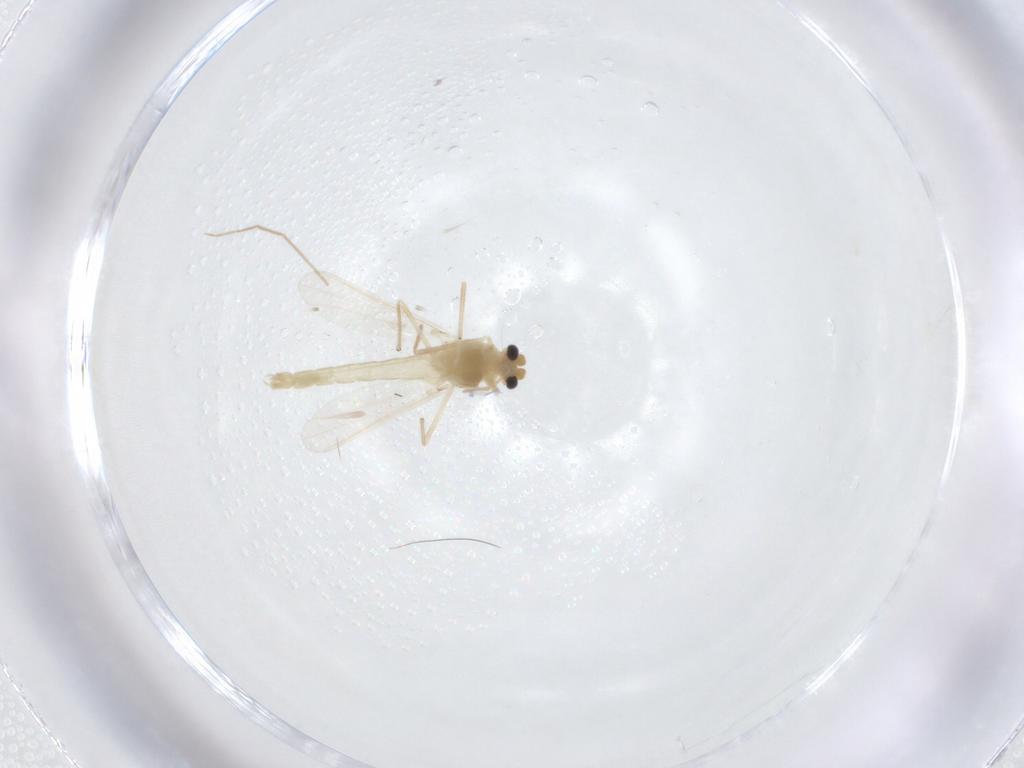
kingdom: Animalia
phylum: Arthropoda
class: Insecta
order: Diptera
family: Chironomidae
